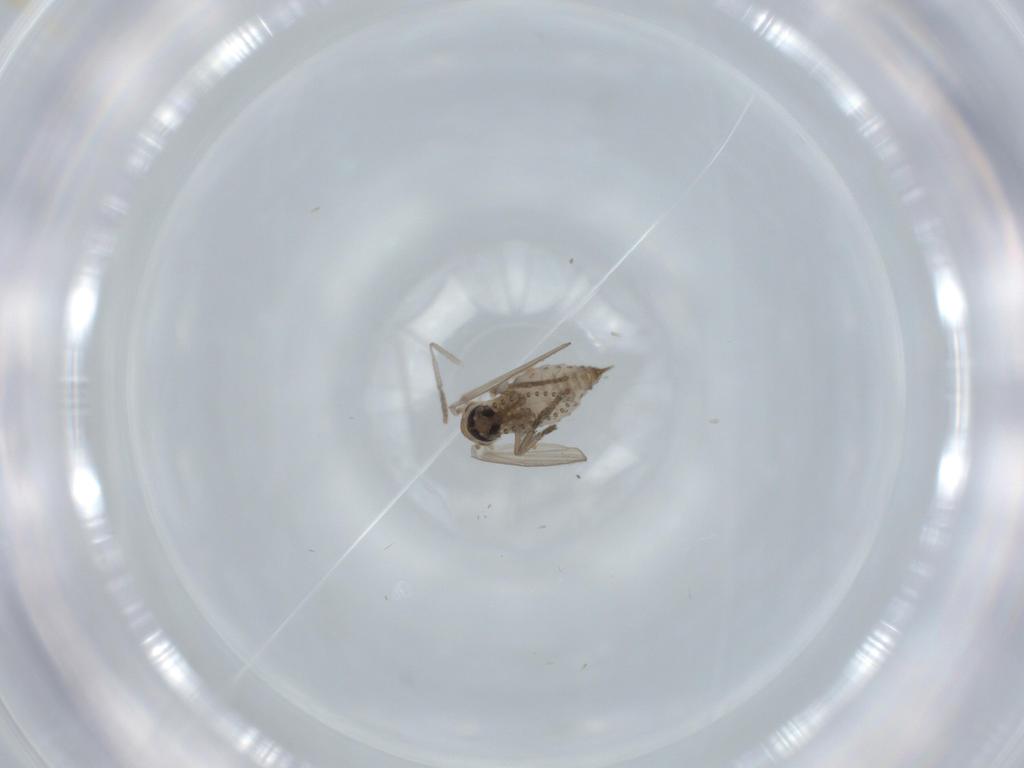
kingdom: Animalia
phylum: Arthropoda
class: Insecta
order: Diptera
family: Psychodidae
